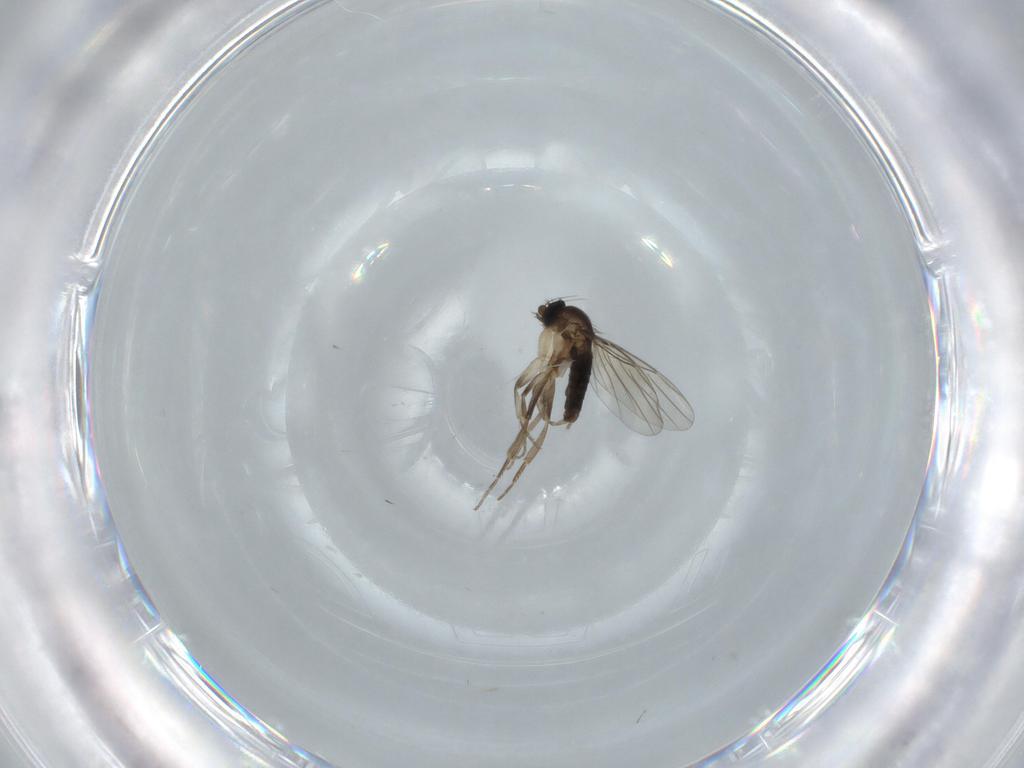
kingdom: Animalia
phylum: Arthropoda
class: Insecta
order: Diptera
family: Phoridae
